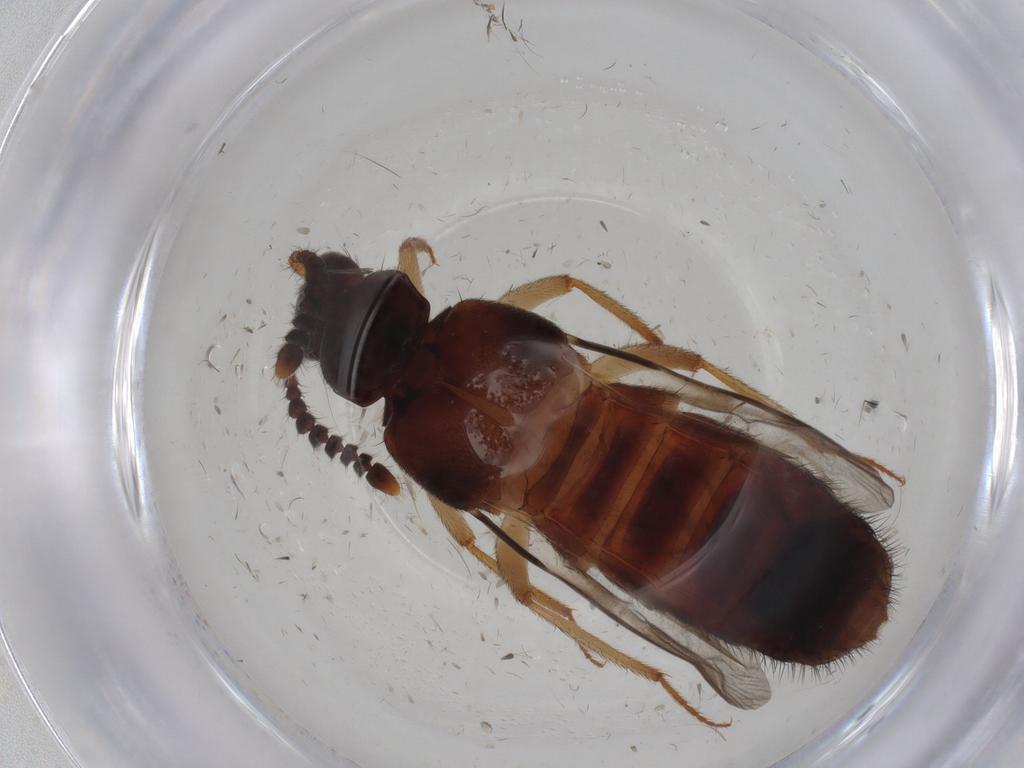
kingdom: Animalia
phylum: Arthropoda
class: Insecta
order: Coleoptera
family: Staphylinidae
